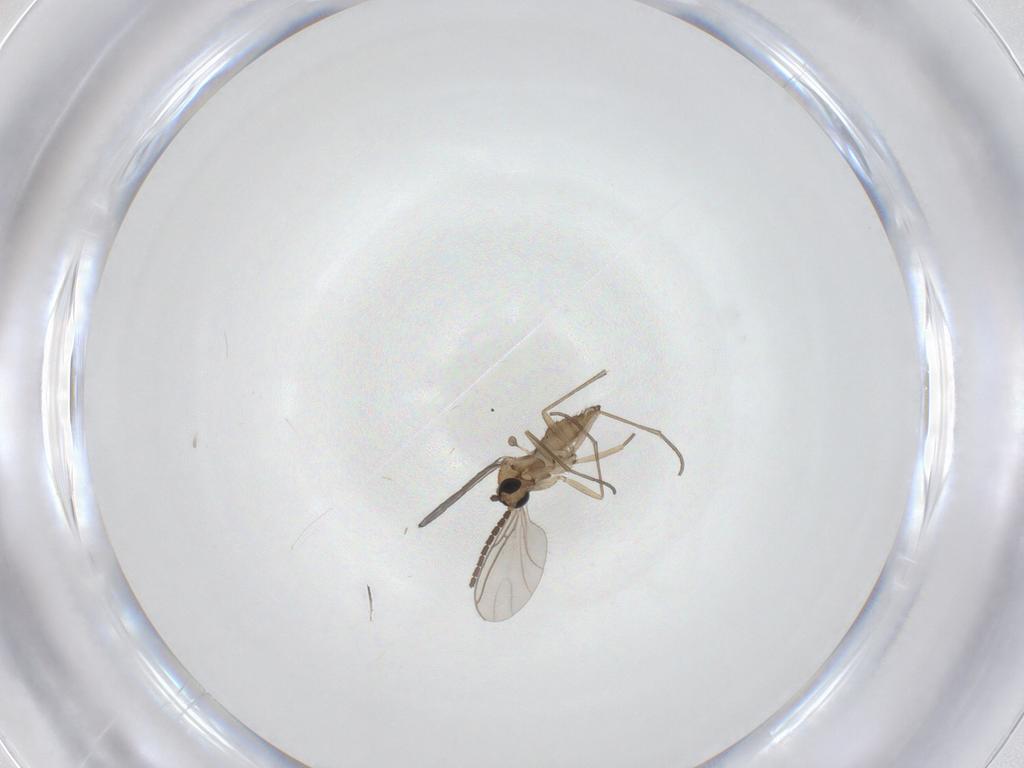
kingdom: Animalia
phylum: Arthropoda
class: Insecta
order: Diptera
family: Sciaridae
